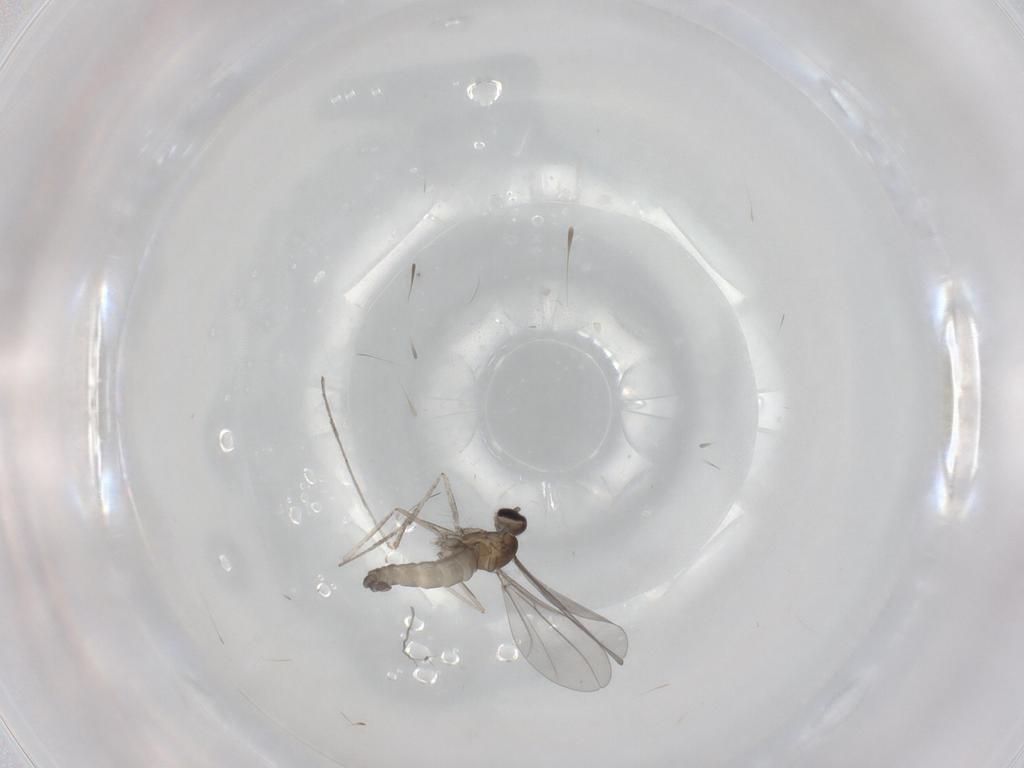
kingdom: Animalia
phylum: Arthropoda
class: Insecta
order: Diptera
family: Cecidomyiidae
